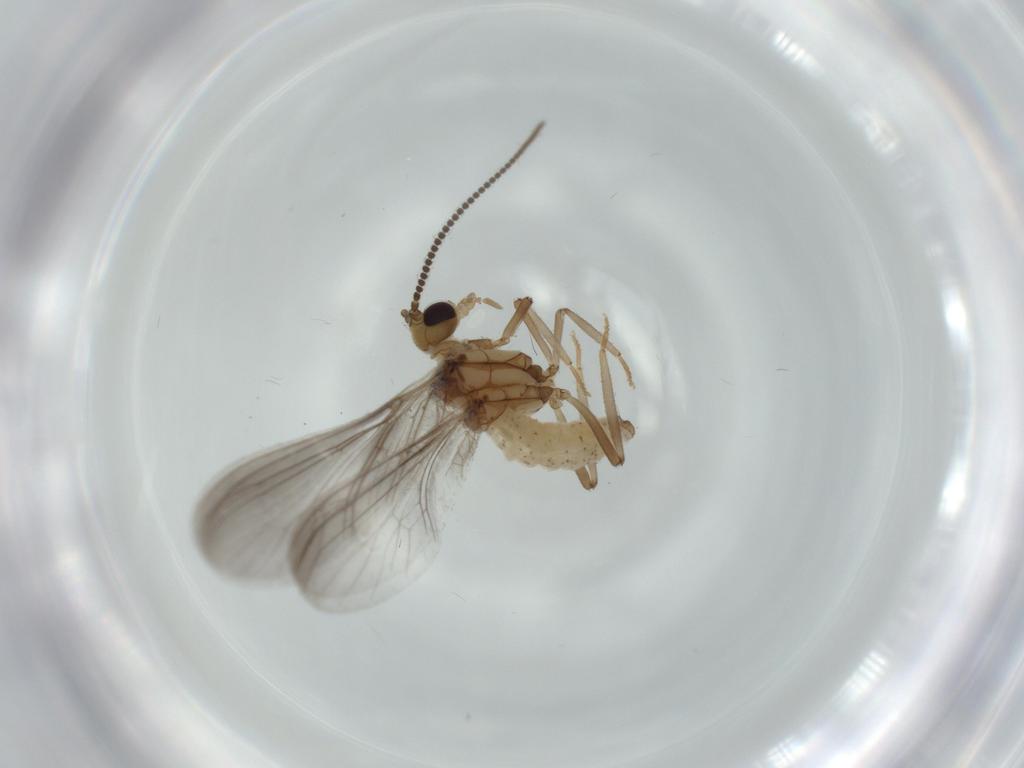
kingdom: Animalia
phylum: Arthropoda
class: Insecta
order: Neuroptera
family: Coniopterygidae
